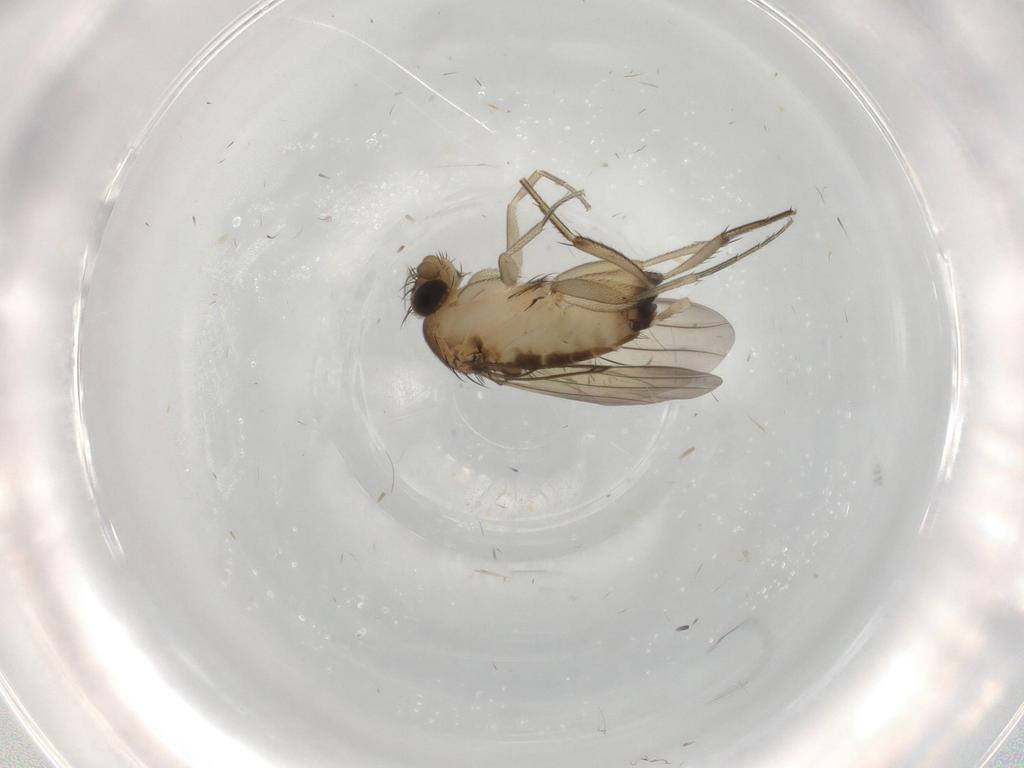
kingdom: Animalia
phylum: Arthropoda
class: Insecta
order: Diptera
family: Phoridae
